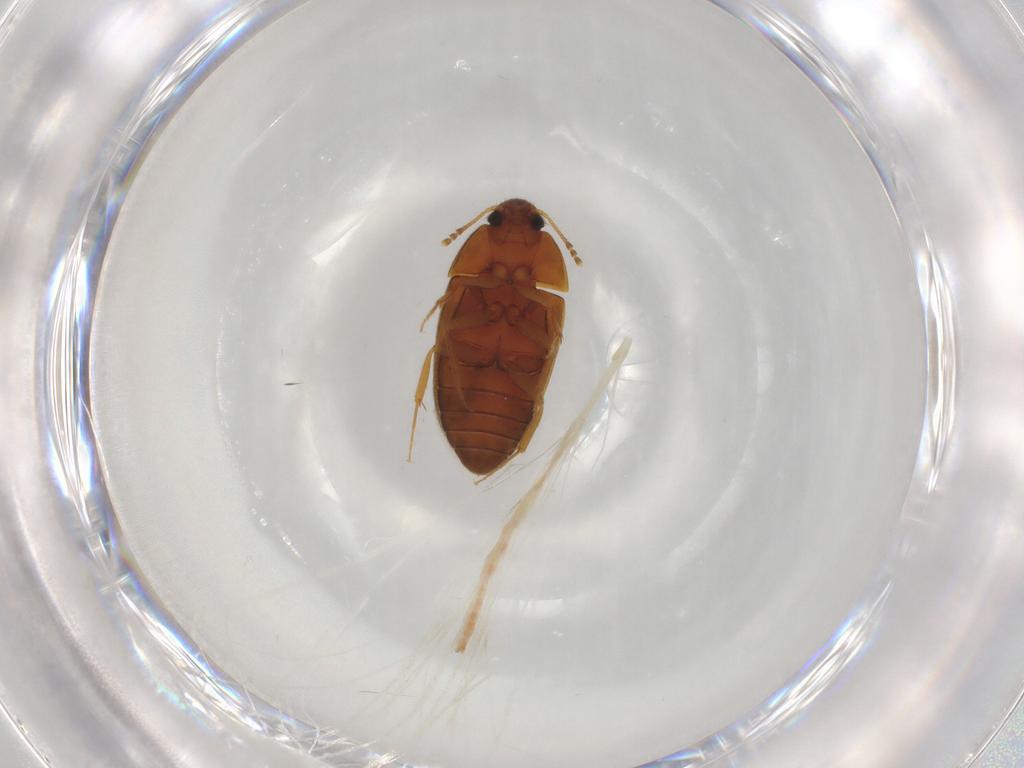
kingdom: Animalia
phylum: Arthropoda
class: Insecta
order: Coleoptera
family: Mycetophagidae
